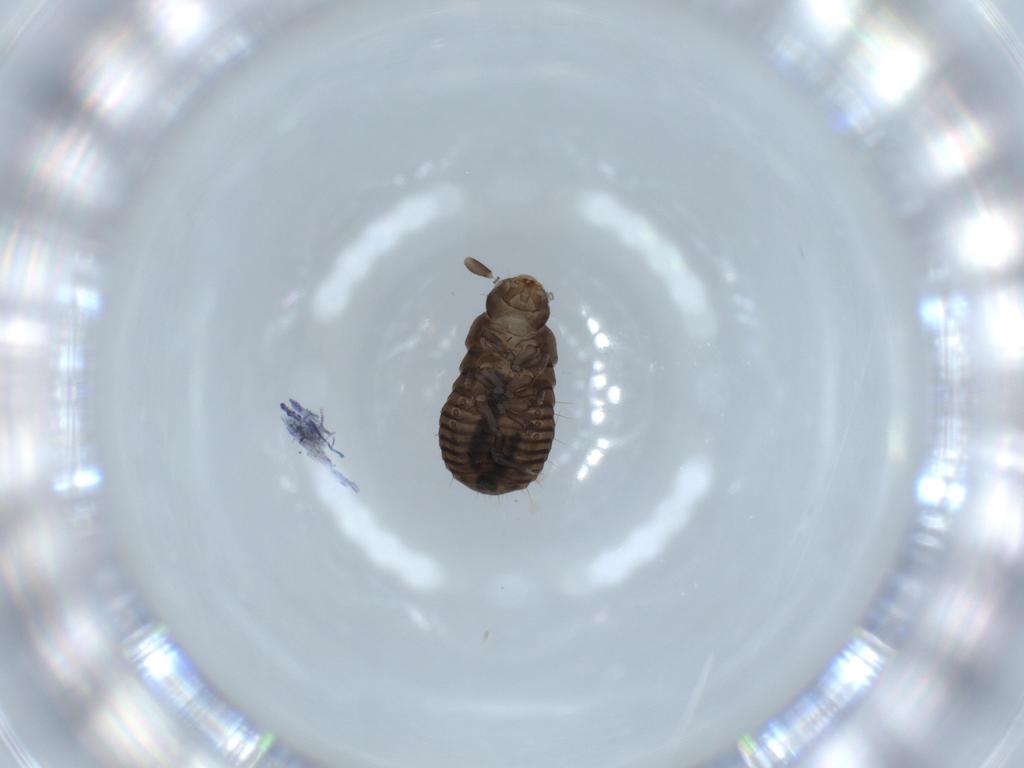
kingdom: Animalia
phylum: Arthropoda
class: Insecta
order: Coleoptera
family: Tenebrionidae
